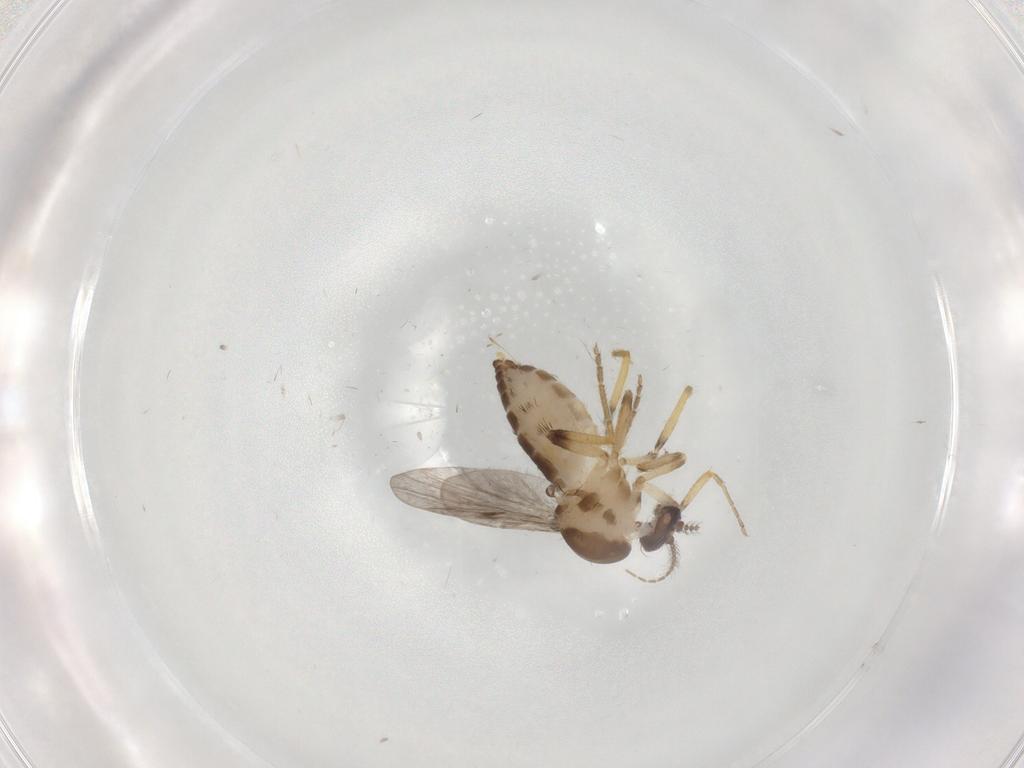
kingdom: Animalia
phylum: Arthropoda
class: Insecta
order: Diptera
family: Ceratopogonidae
